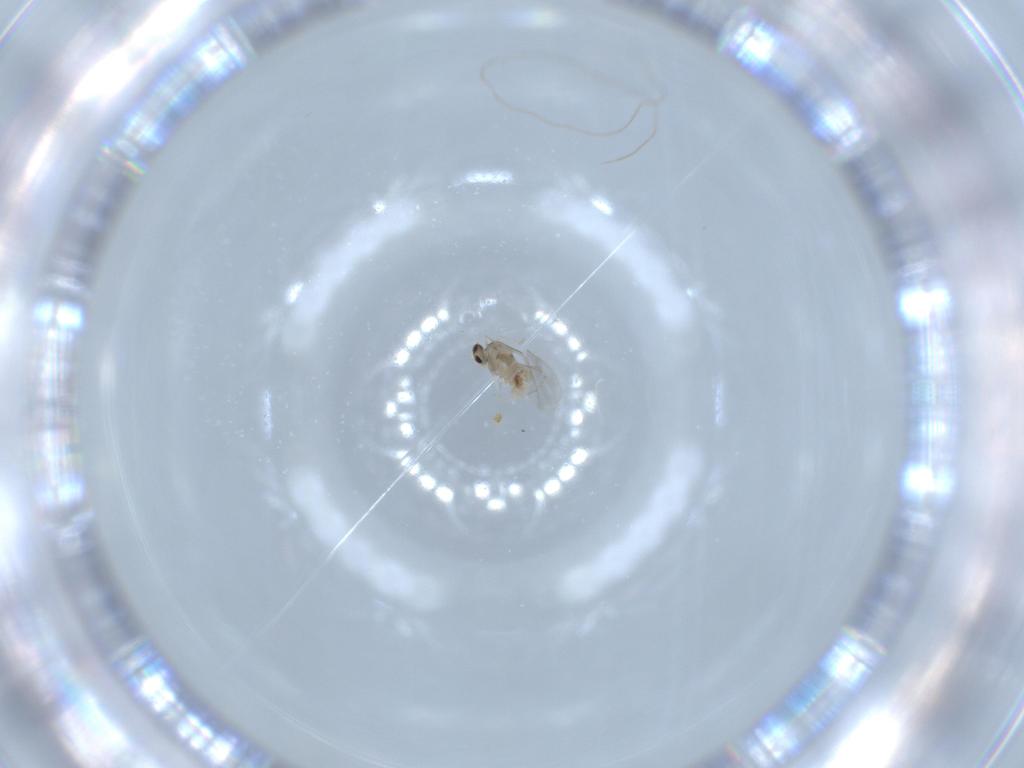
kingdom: Animalia
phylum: Arthropoda
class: Insecta
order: Diptera
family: Cecidomyiidae
